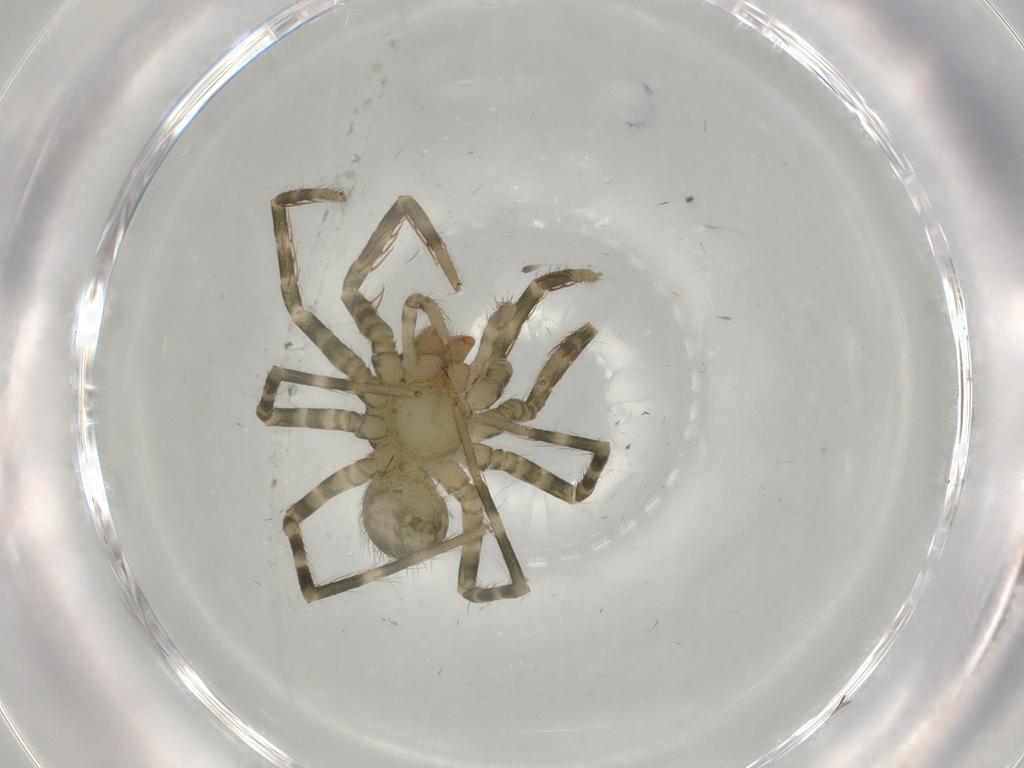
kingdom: Animalia
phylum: Arthropoda
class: Arachnida
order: Araneae
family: Ctenidae
